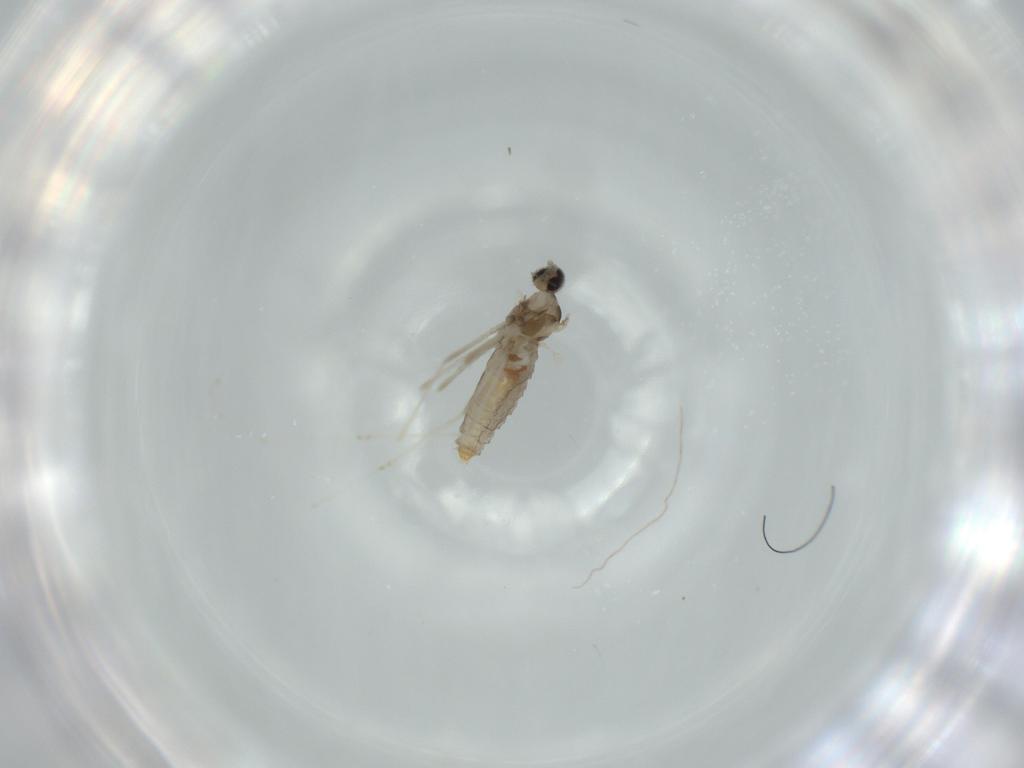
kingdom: Animalia
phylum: Arthropoda
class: Insecta
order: Diptera
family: Cecidomyiidae
